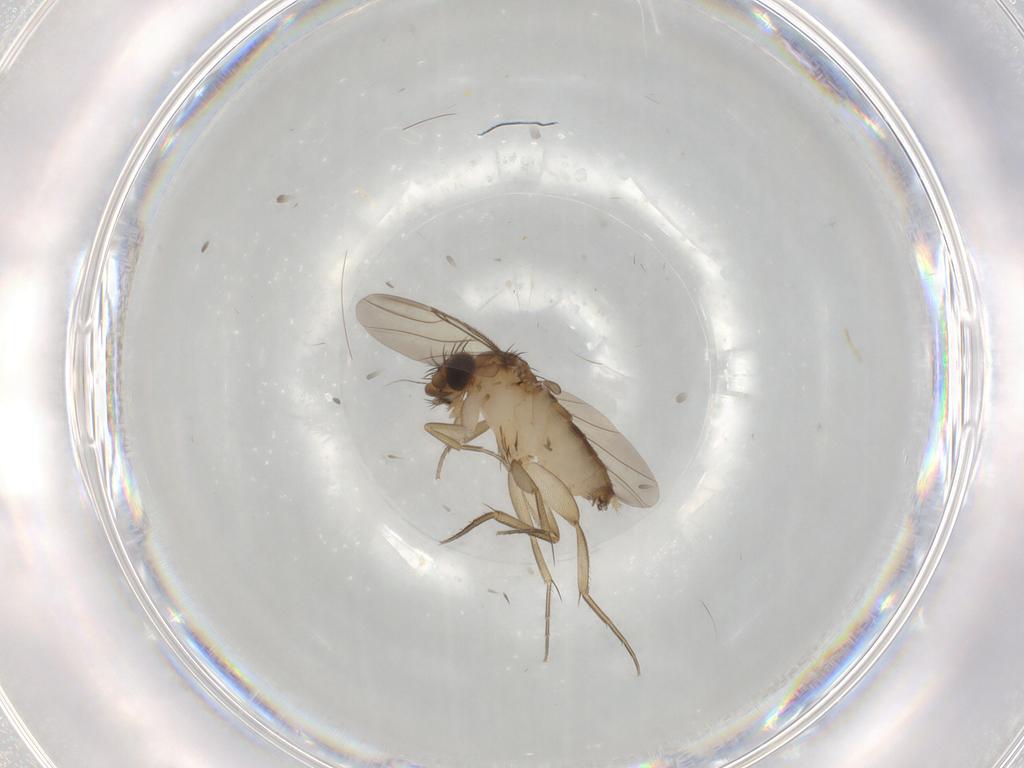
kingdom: Animalia
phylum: Arthropoda
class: Insecta
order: Diptera
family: Phoridae
